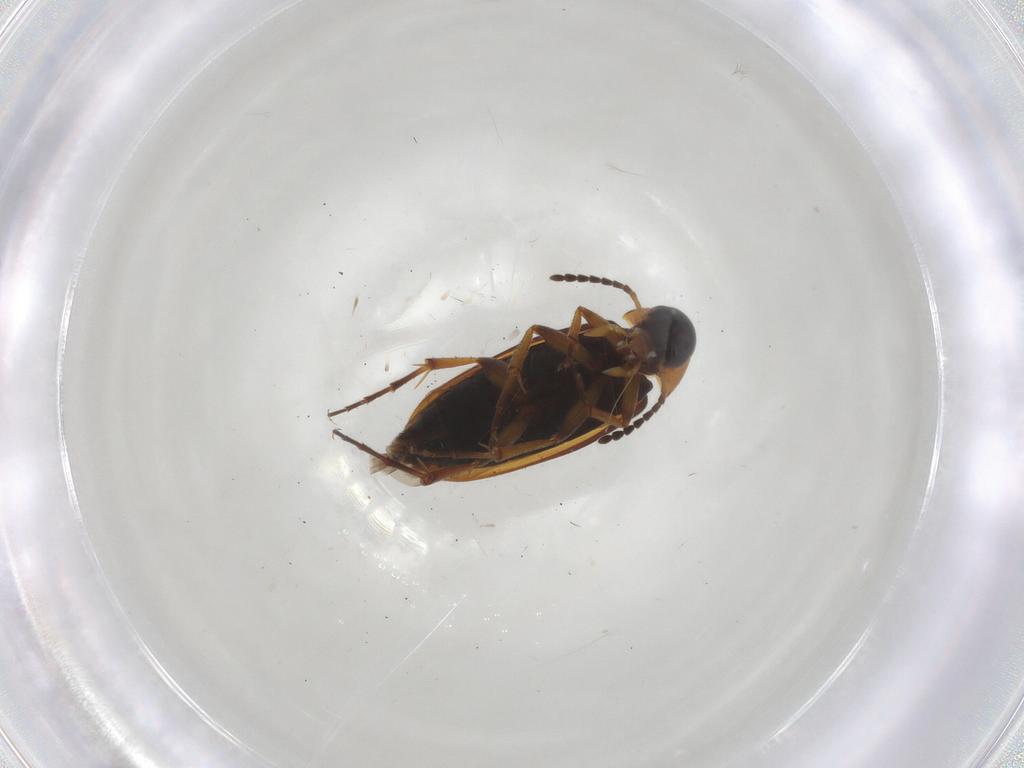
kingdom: Animalia
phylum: Arthropoda
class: Insecta
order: Coleoptera
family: Scraptiidae
